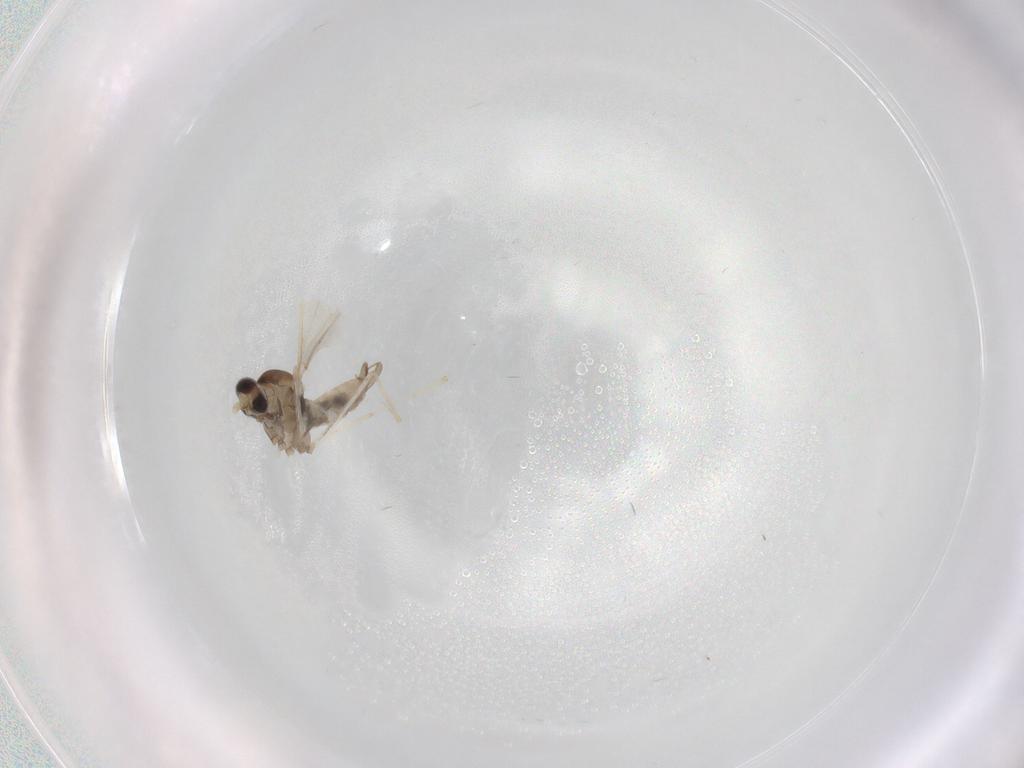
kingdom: Animalia
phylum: Arthropoda
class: Insecta
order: Diptera
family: Cecidomyiidae
